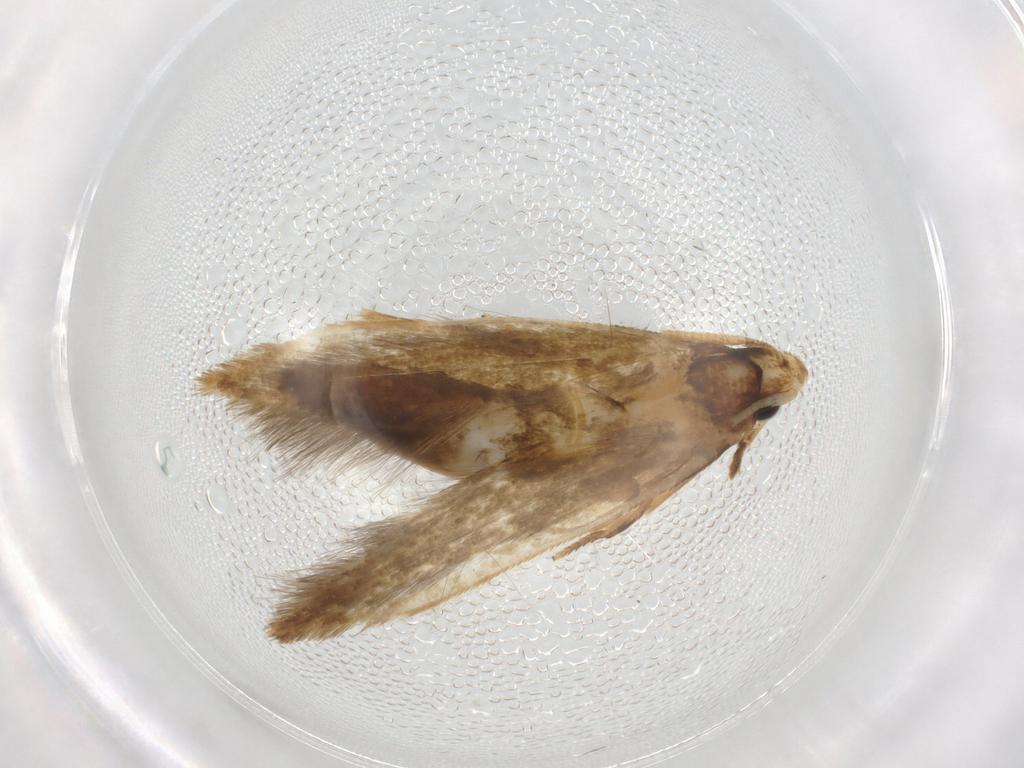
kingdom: Animalia
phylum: Arthropoda
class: Insecta
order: Lepidoptera
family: Tineidae
